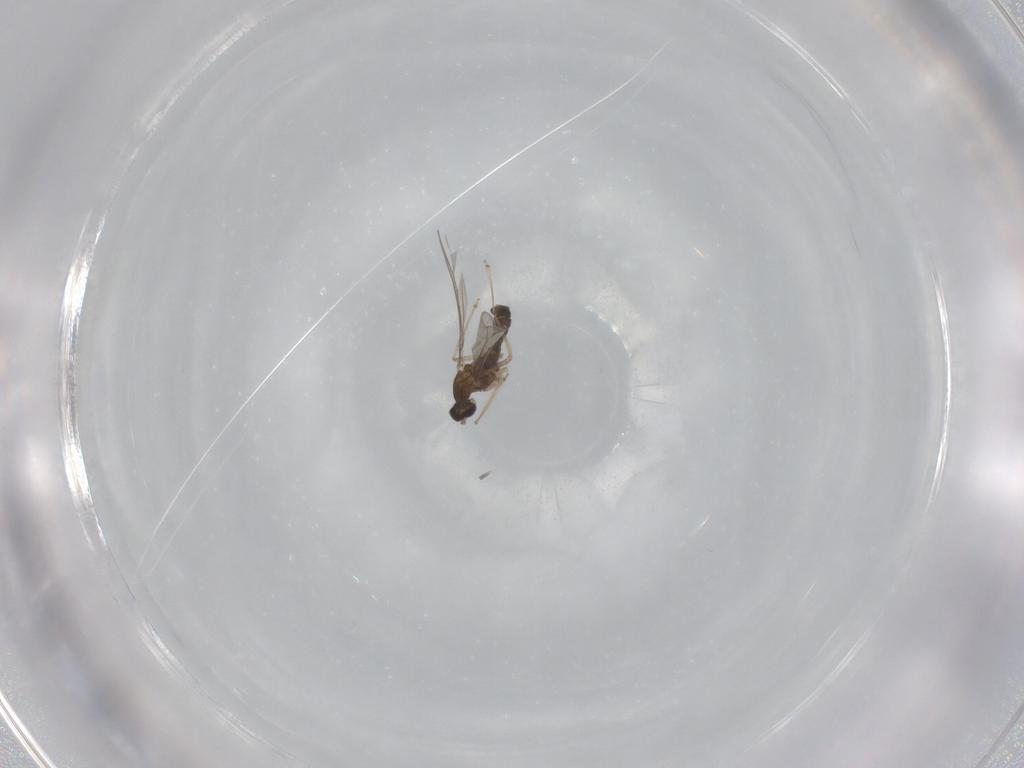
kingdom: Animalia
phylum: Arthropoda
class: Insecta
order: Diptera
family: Cecidomyiidae
